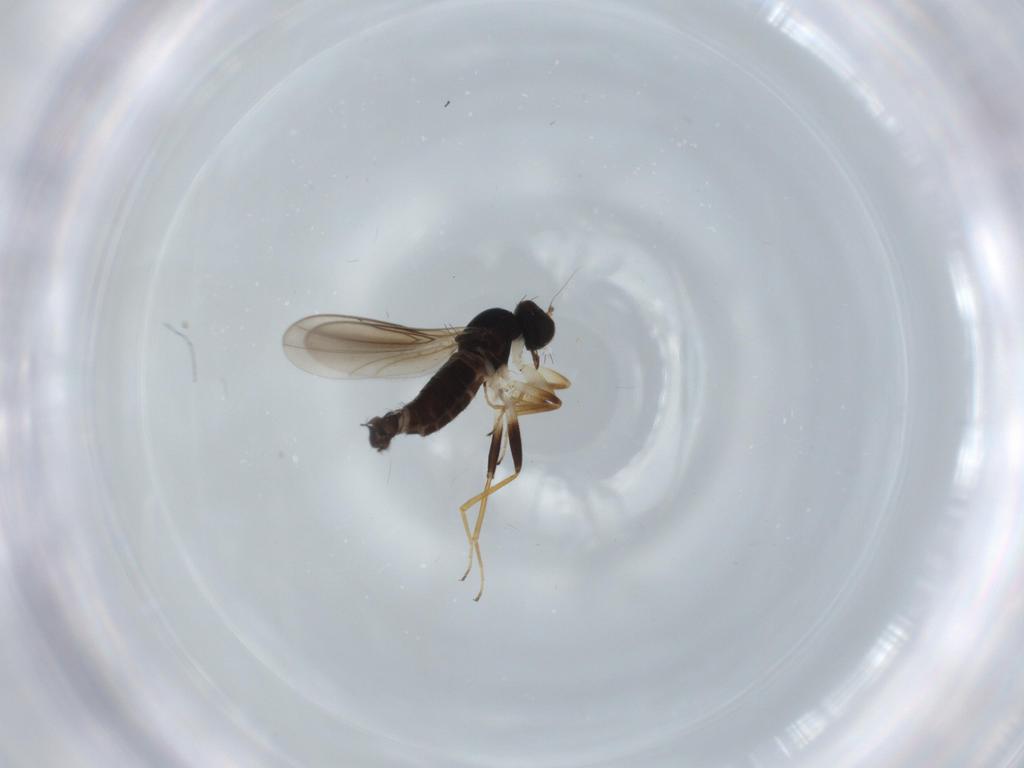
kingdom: Animalia
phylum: Arthropoda
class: Insecta
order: Diptera
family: Hybotidae
